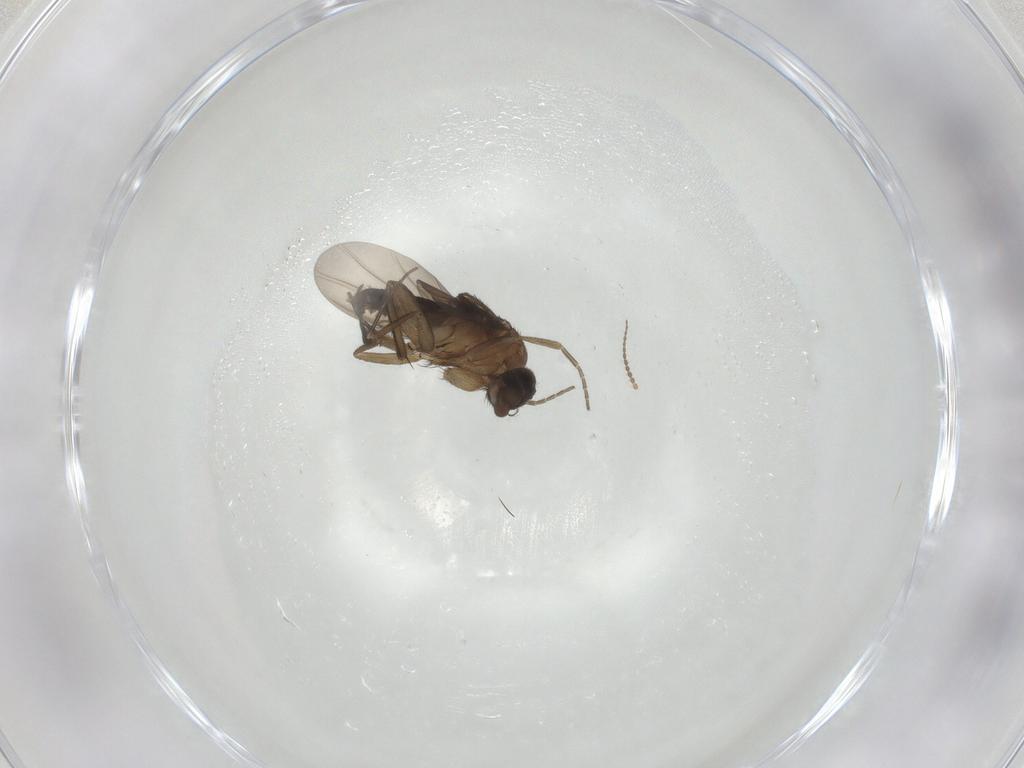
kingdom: Animalia
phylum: Arthropoda
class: Insecta
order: Diptera
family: Phoridae
